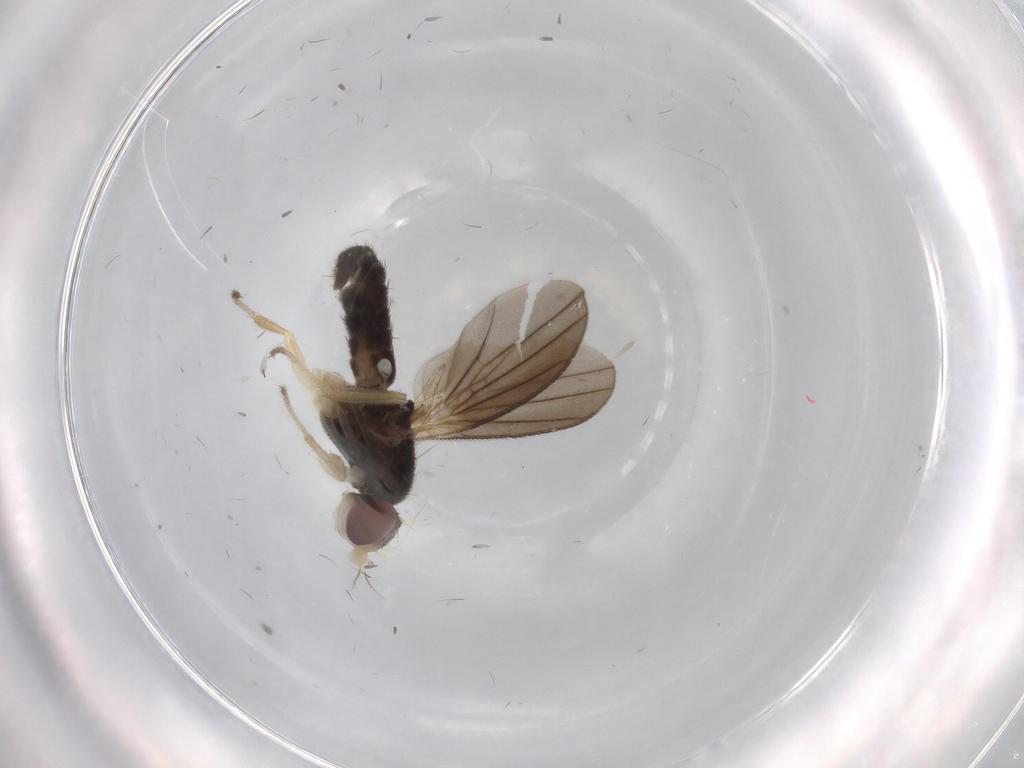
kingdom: Animalia
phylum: Arthropoda
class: Insecta
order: Diptera
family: Clusiidae
